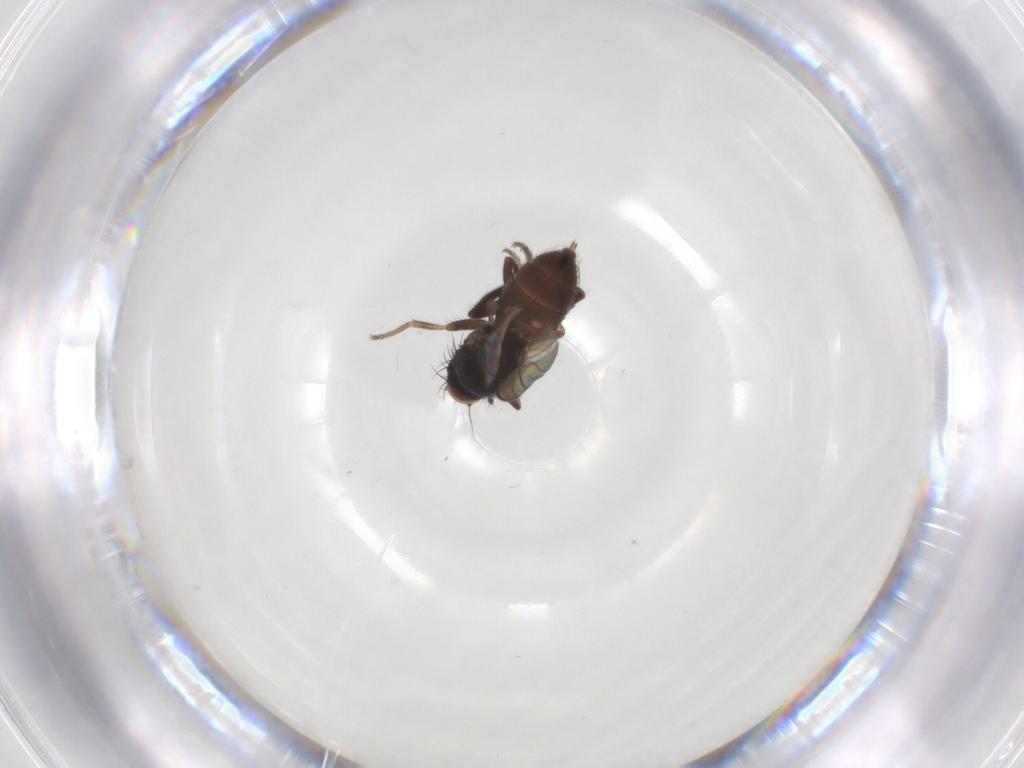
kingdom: Animalia
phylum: Arthropoda
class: Insecta
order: Diptera
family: Milichiidae
